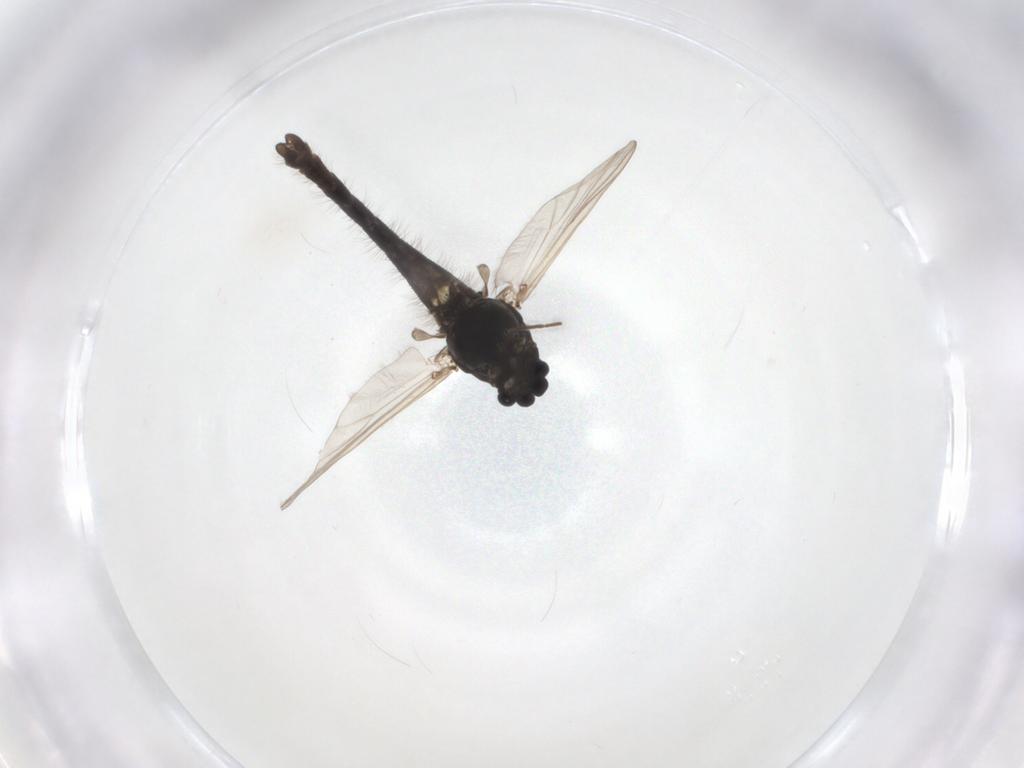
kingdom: Animalia
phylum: Arthropoda
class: Insecta
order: Diptera
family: Chironomidae
